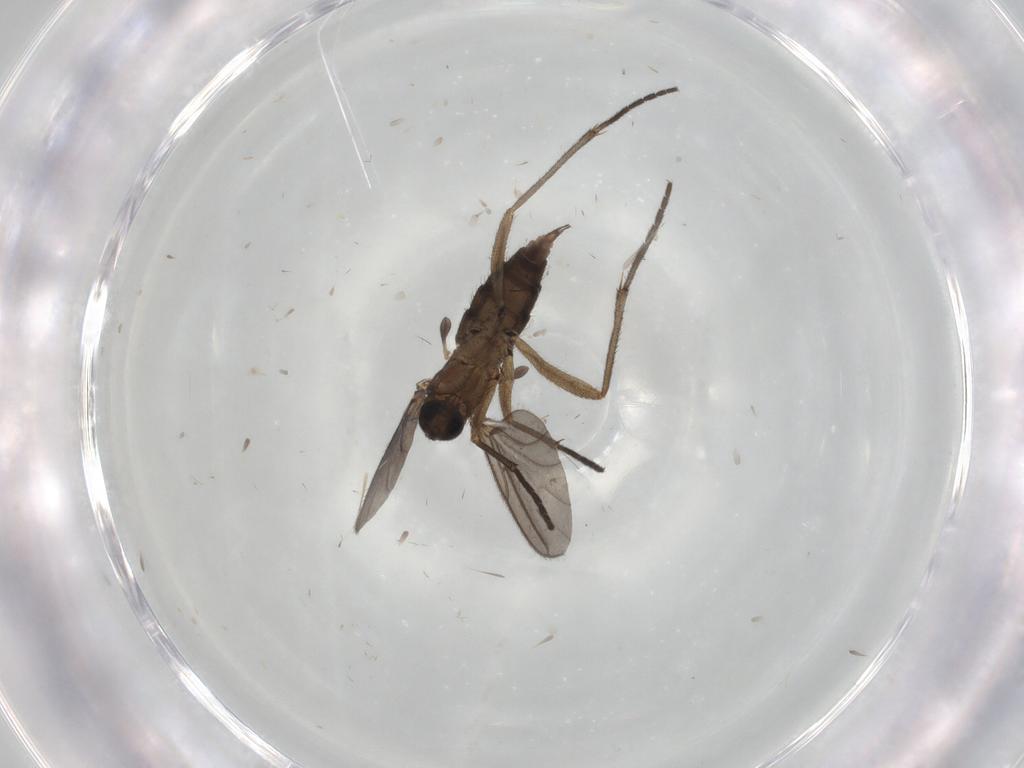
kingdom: Animalia
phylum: Arthropoda
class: Insecta
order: Diptera
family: Sciaridae
